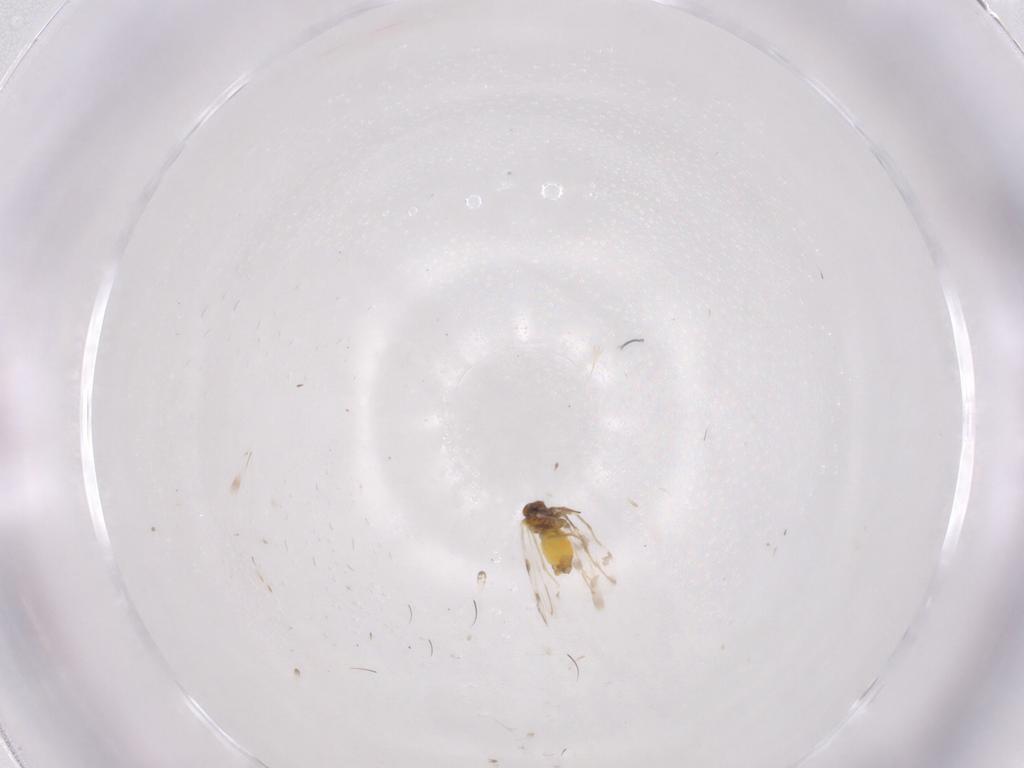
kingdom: Animalia
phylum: Arthropoda
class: Insecta
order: Hemiptera
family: Aleyrodidae
